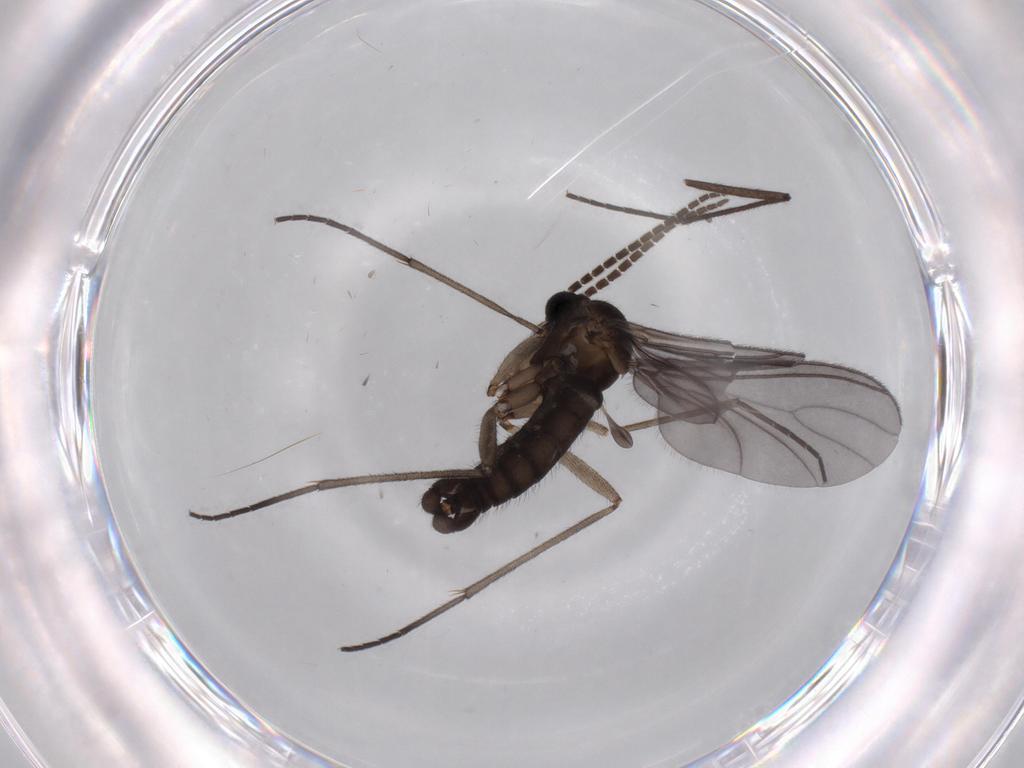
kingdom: Animalia
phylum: Arthropoda
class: Insecta
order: Diptera
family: Sciaridae
